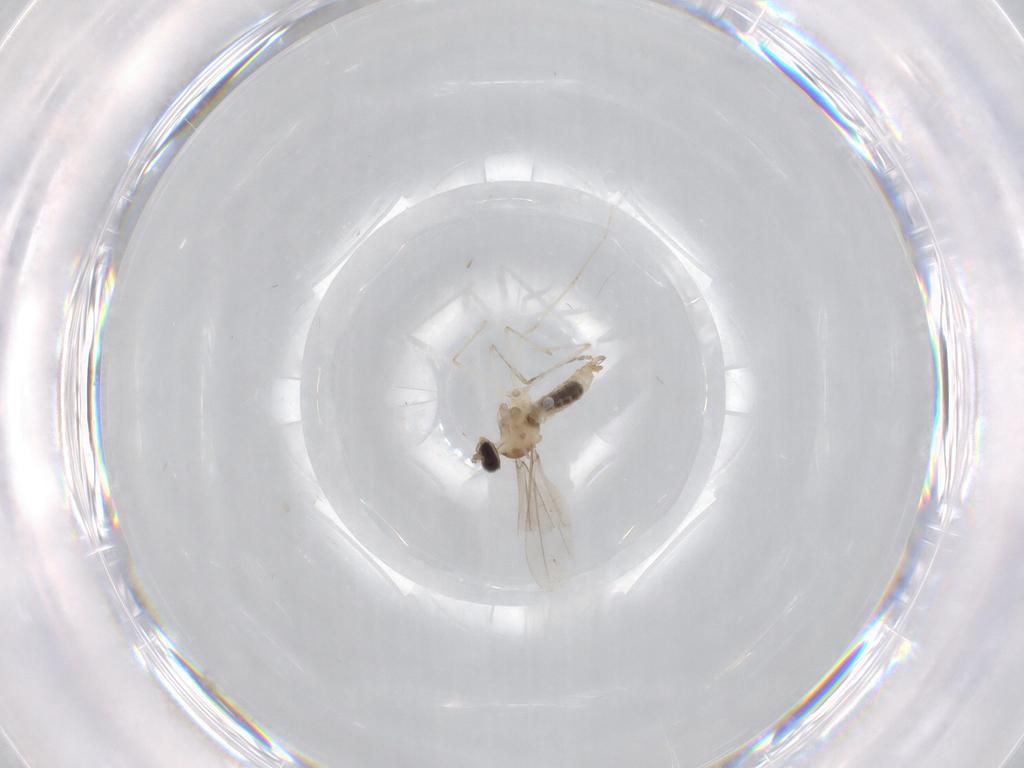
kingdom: Animalia
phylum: Arthropoda
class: Insecta
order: Diptera
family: Cecidomyiidae
